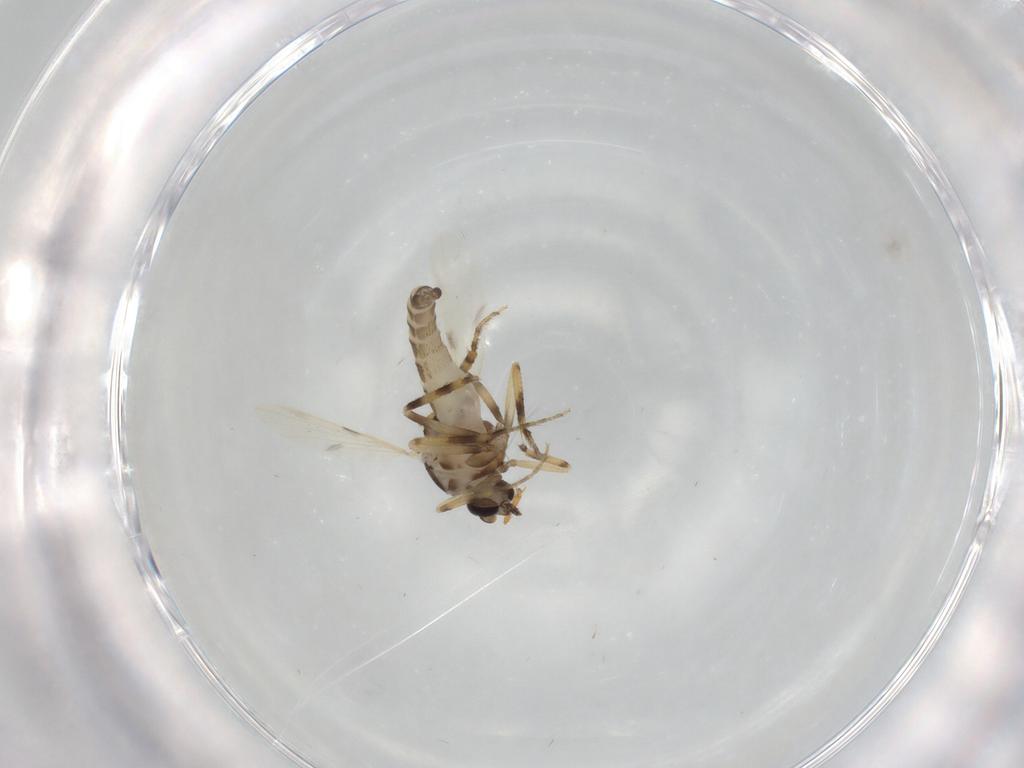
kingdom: Animalia
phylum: Arthropoda
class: Insecta
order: Diptera
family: Ceratopogonidae
